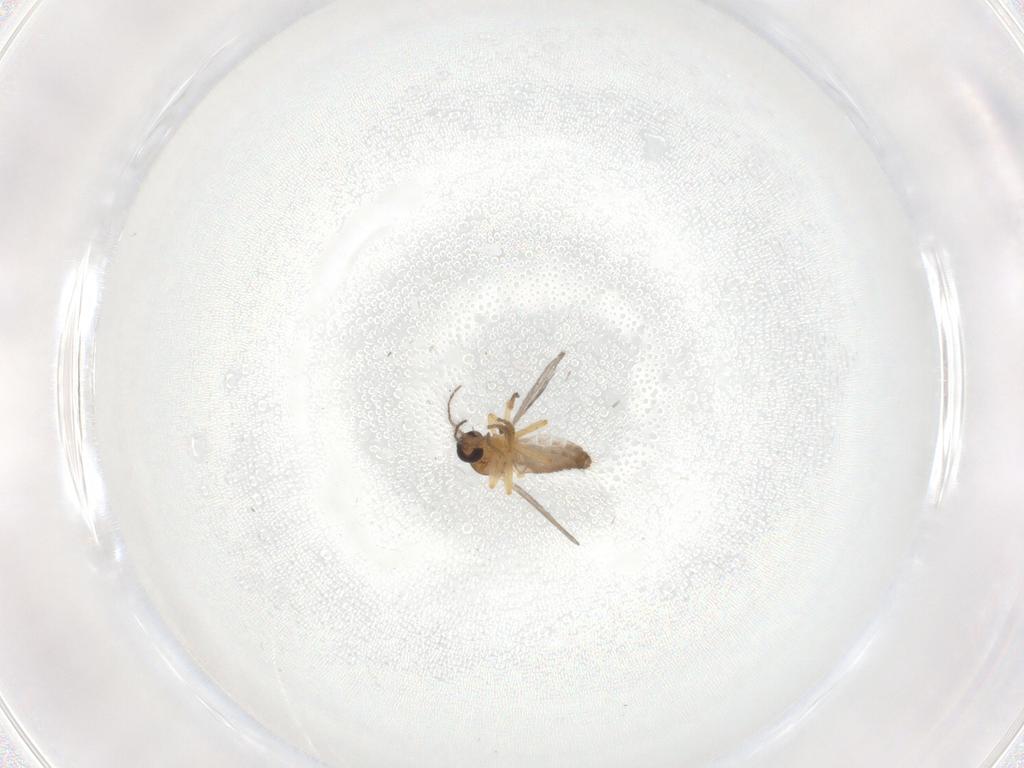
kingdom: Animalia
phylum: Arthropoda
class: Insecta
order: Diptera
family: Ceratopogonidae
